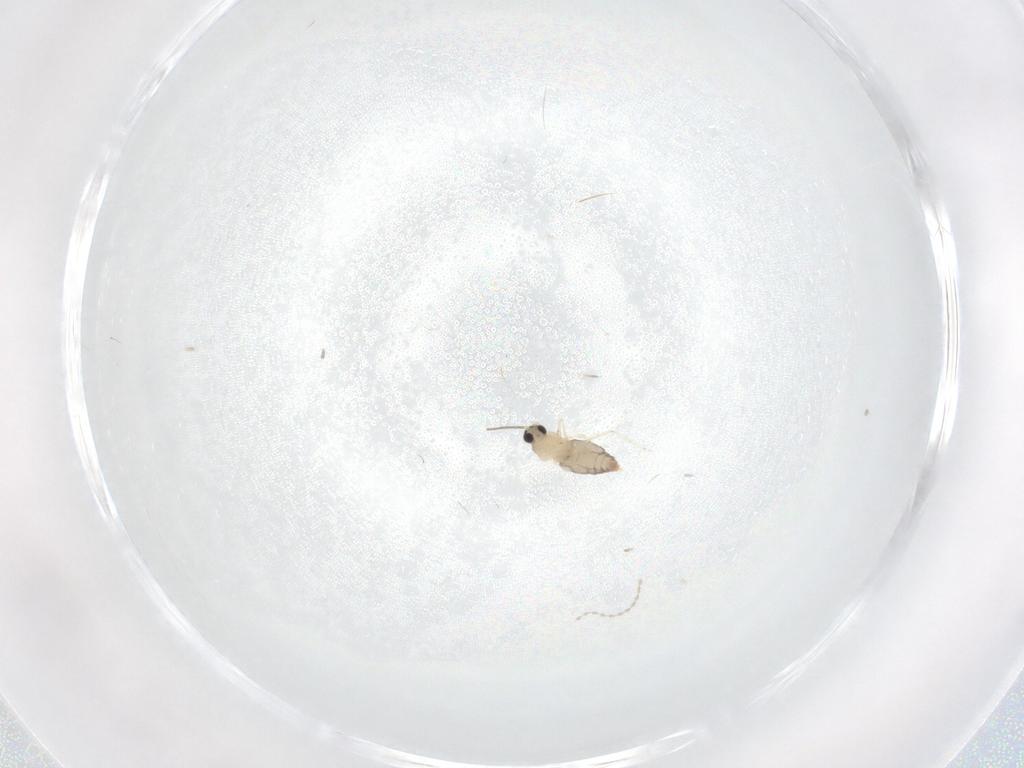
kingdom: Animalia
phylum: Arthropoda
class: Insecta
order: Diptera
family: Cecidomyiidae
